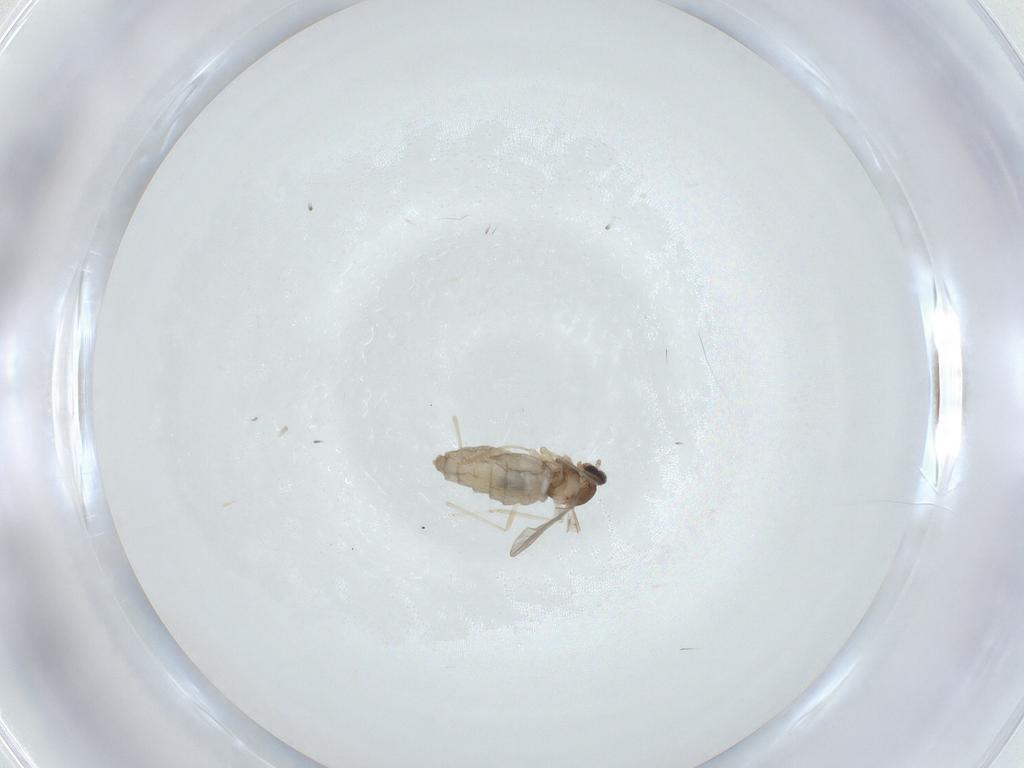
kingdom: Animalia
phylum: Arthropoda
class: Insecta
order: Diptera
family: Cecidomyiidae
